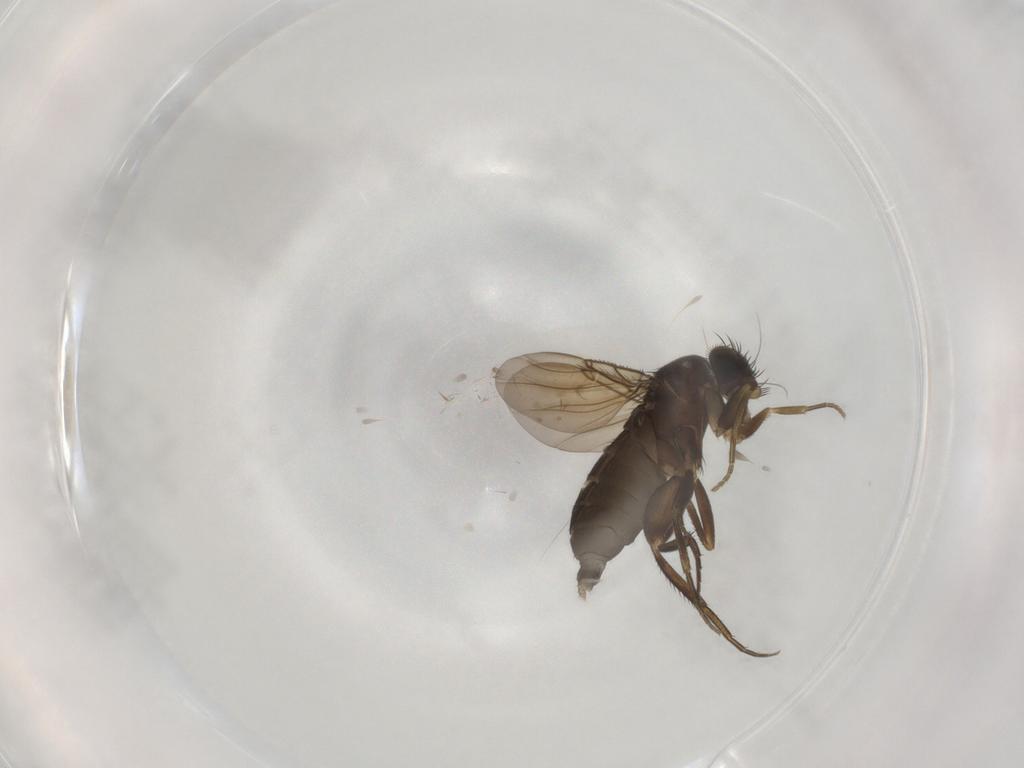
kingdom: Animalia
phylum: Arthropoda
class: Insecta
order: Diptera
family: Phoridae
